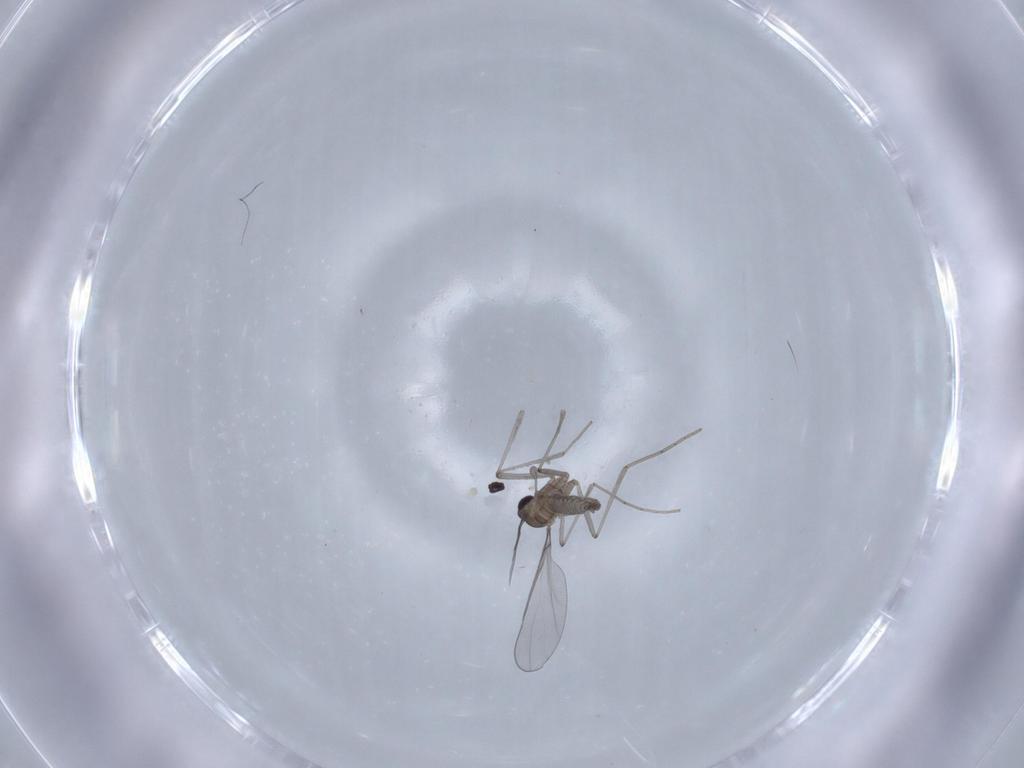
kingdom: Animalia
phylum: Arthropoda
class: Insecta
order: Diptera
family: Cecidomyiidae
